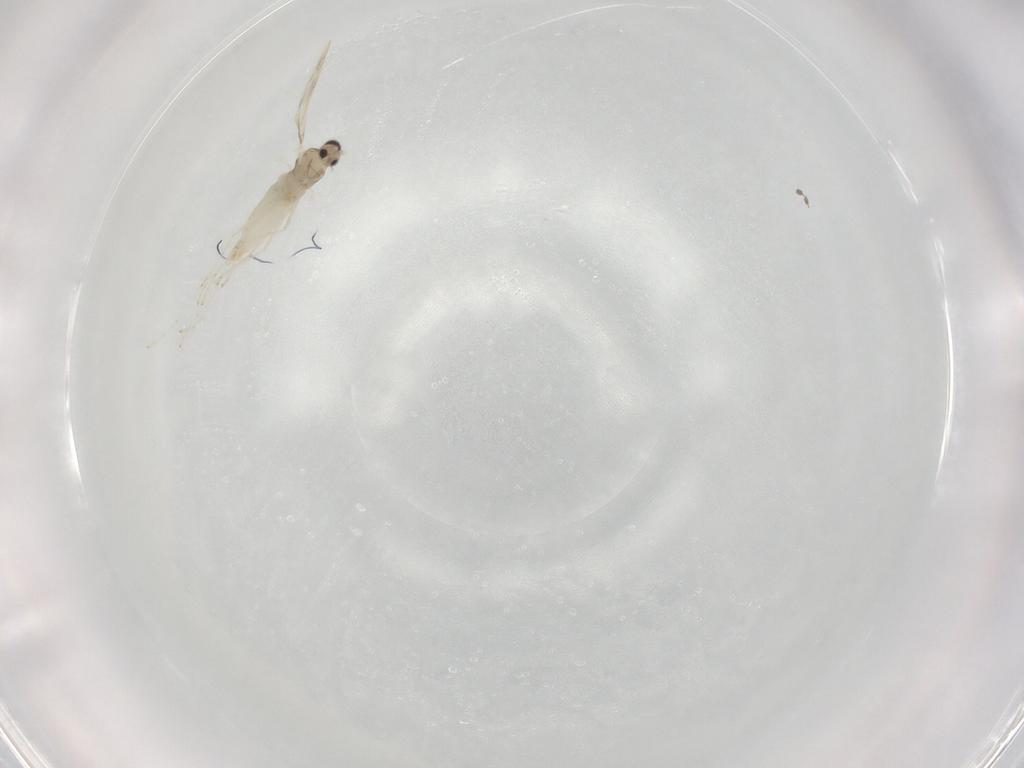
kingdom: Animalia
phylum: Arthropoda
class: Insecta
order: Diptera
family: Cecidomyiidae
